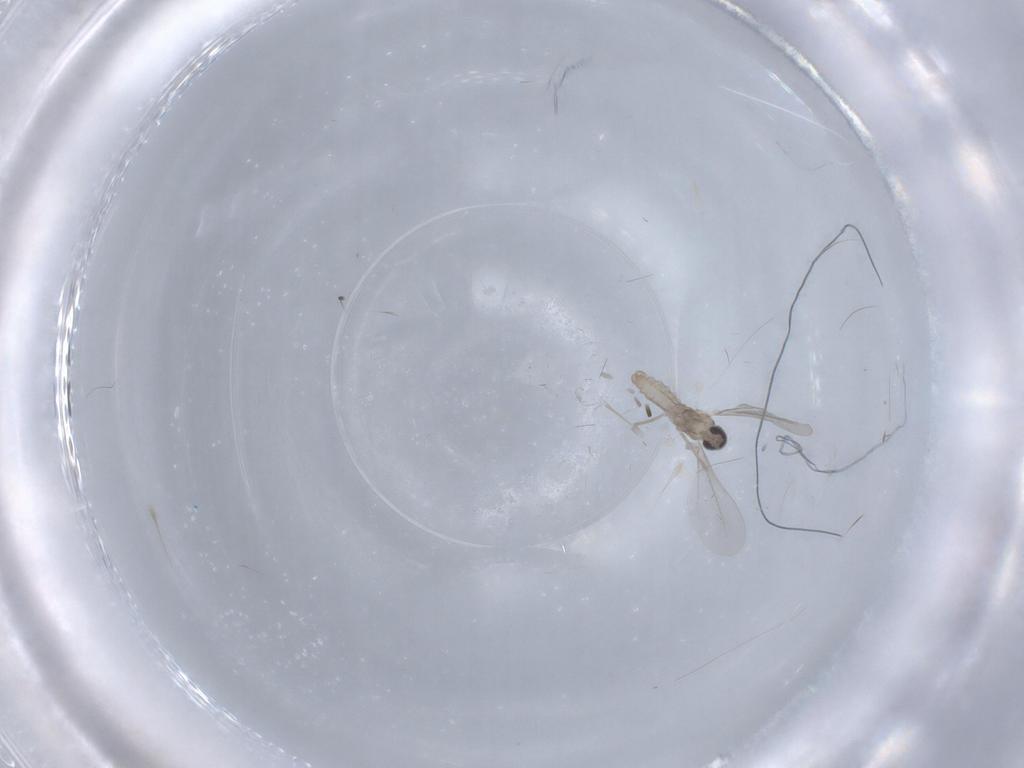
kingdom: Animalia
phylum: Arthropoda
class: Insecta
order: Diptera
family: Cecidomyiidae
